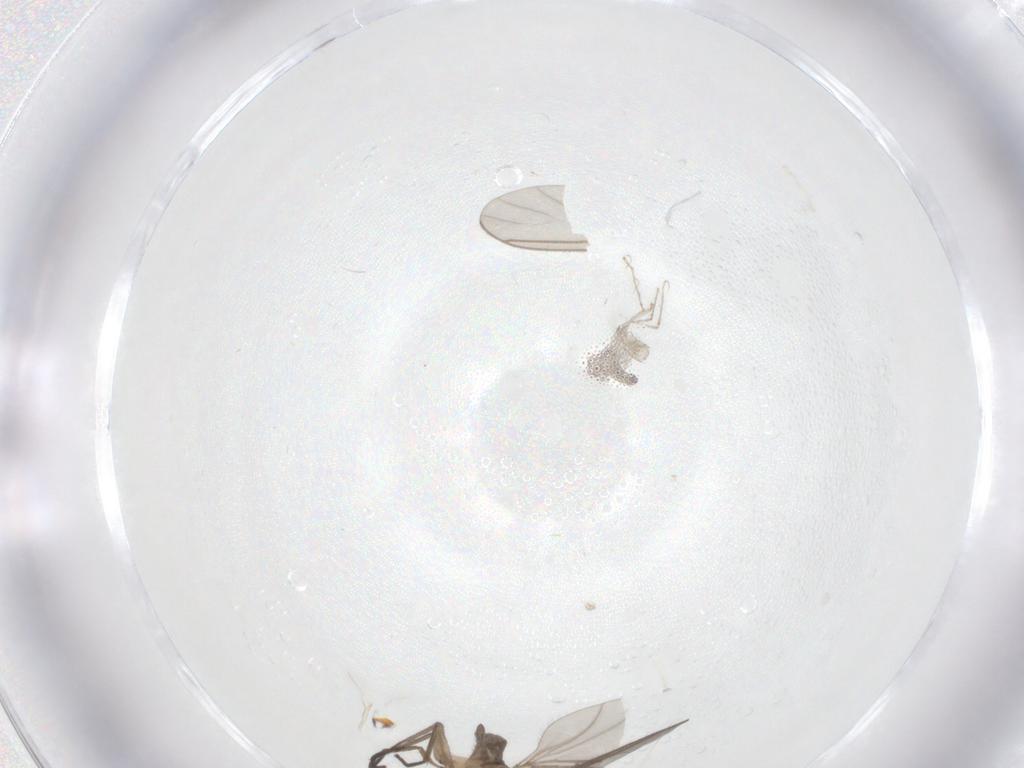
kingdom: Animalia
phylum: Arthropoda
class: Insecta
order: Diptera
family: Sciaridae
